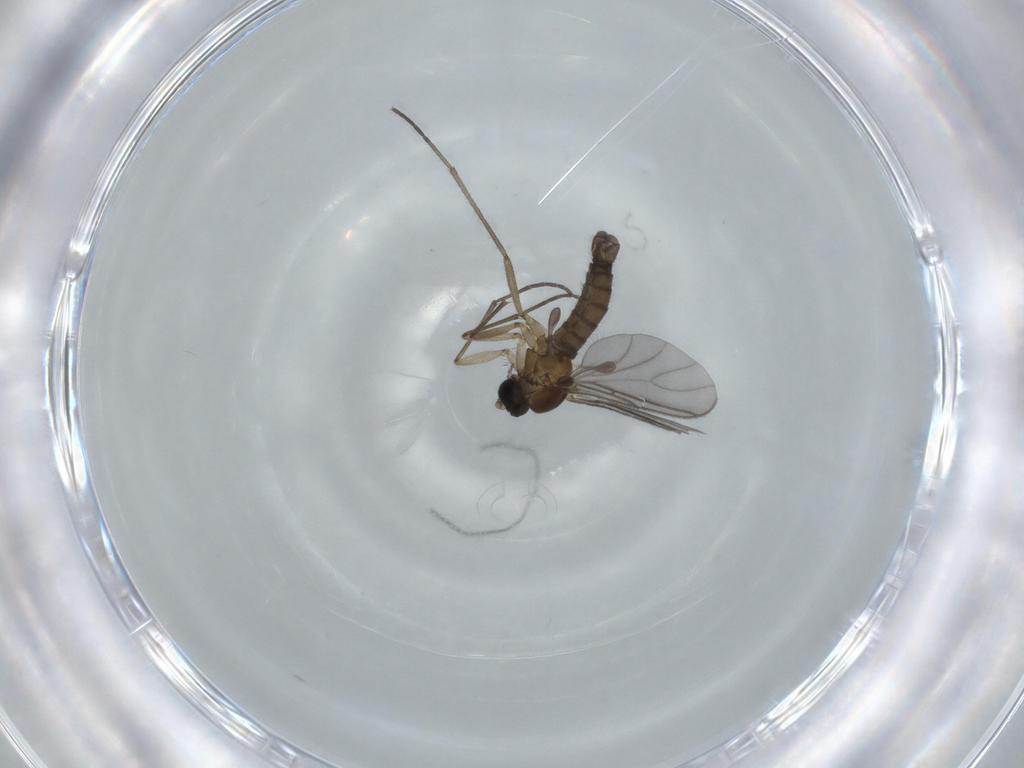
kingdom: Animalia
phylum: Arthropoda
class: Insecta
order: Diptera
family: Sciaridae
